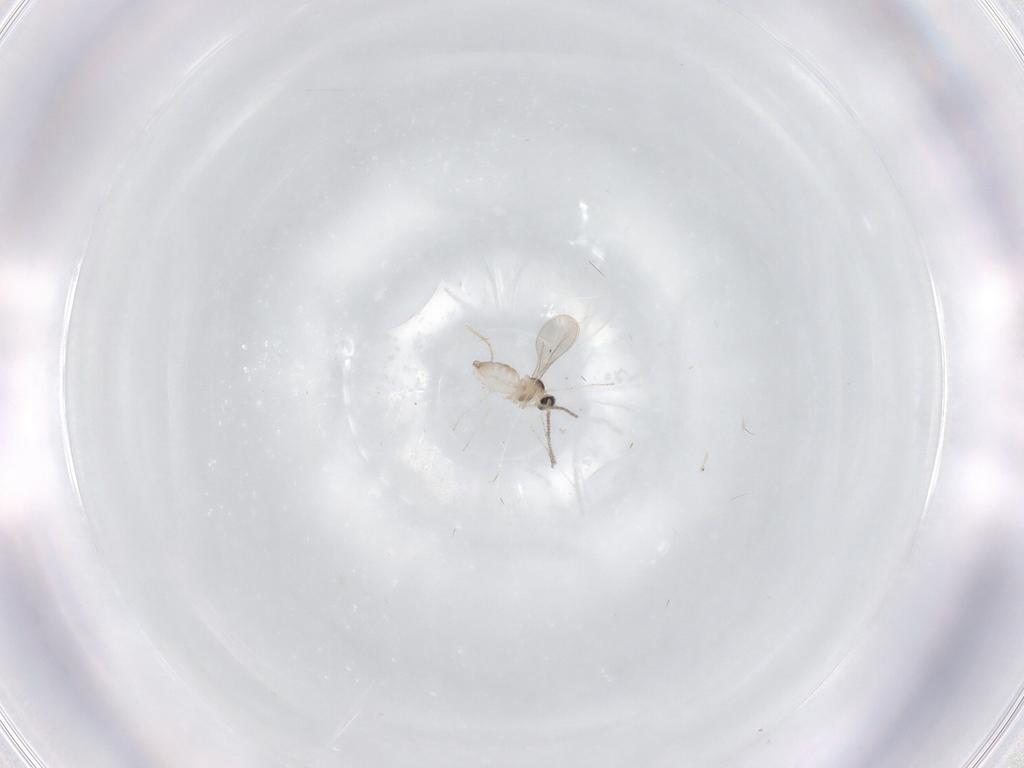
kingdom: Animalia
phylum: Arthropoda
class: Insecta
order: Diptera
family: Chironomidae
